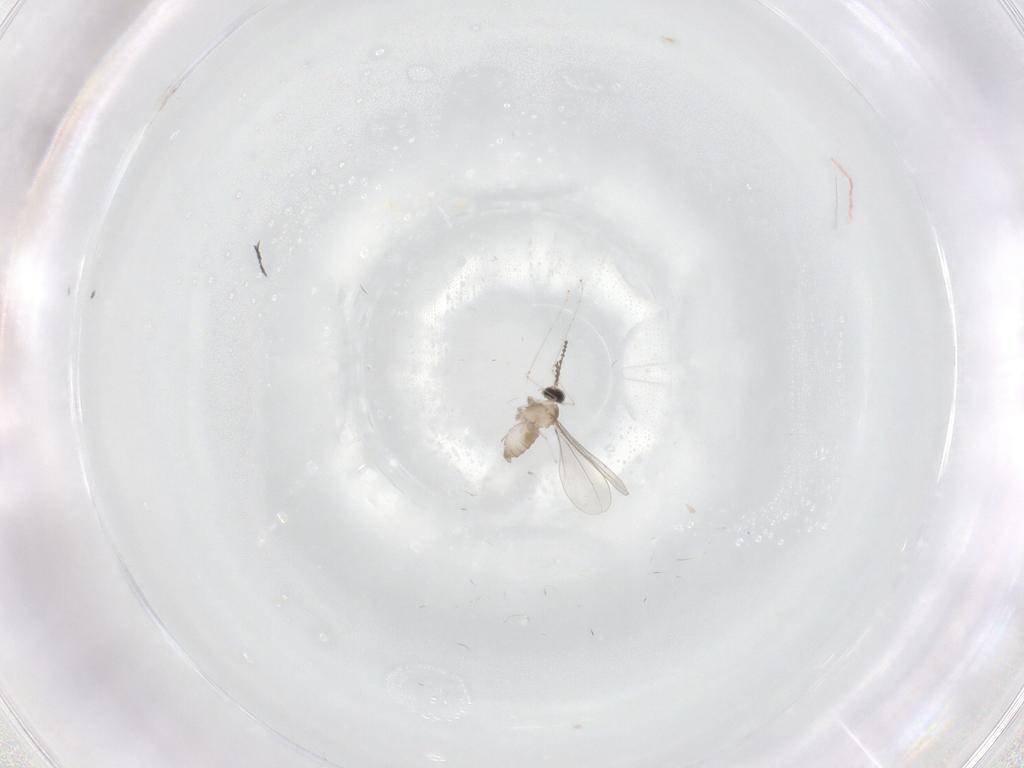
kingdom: Animalia
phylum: Arthropoda
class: Insecta
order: Diptera
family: Cecidomyiidae
